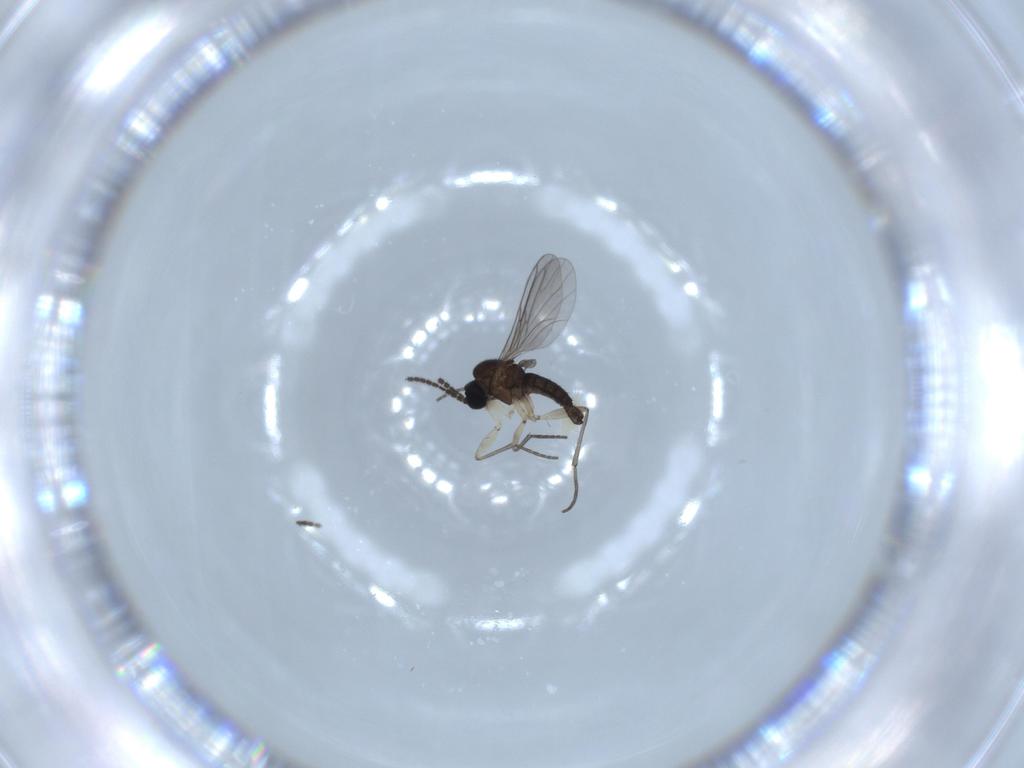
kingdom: Animalia
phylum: Arthropoda
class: Insecta
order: Diptera
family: Sciaridae
